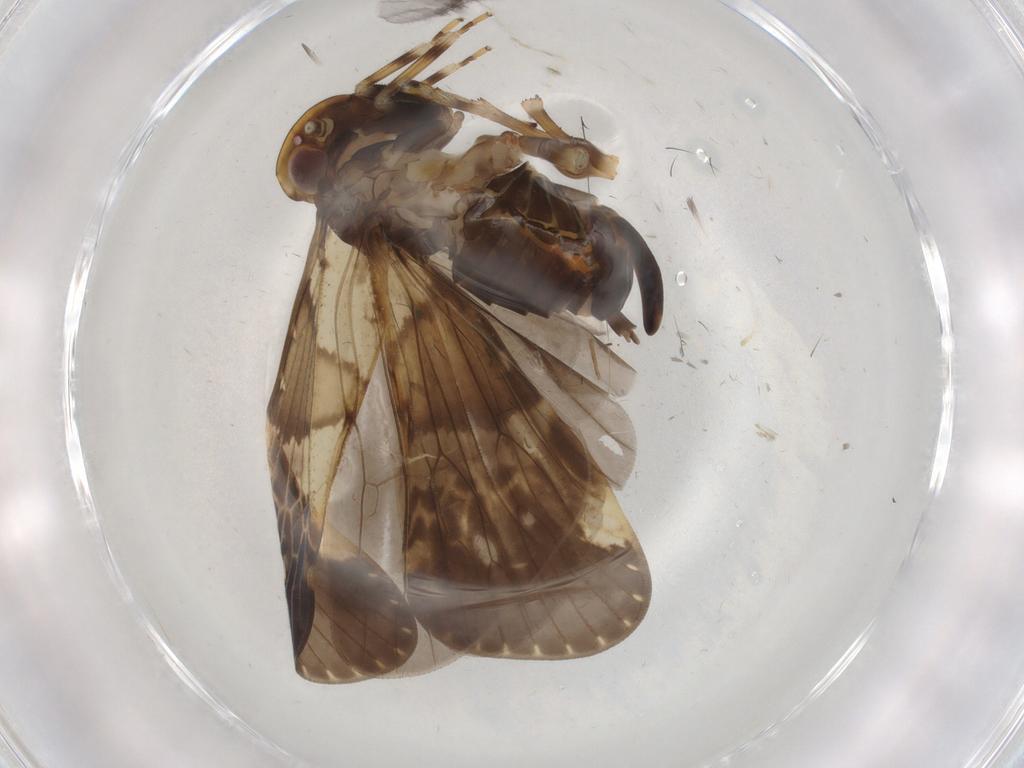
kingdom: Animalia
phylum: Arthropoda
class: Insecta
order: Hemiptera
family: Cixiidae
